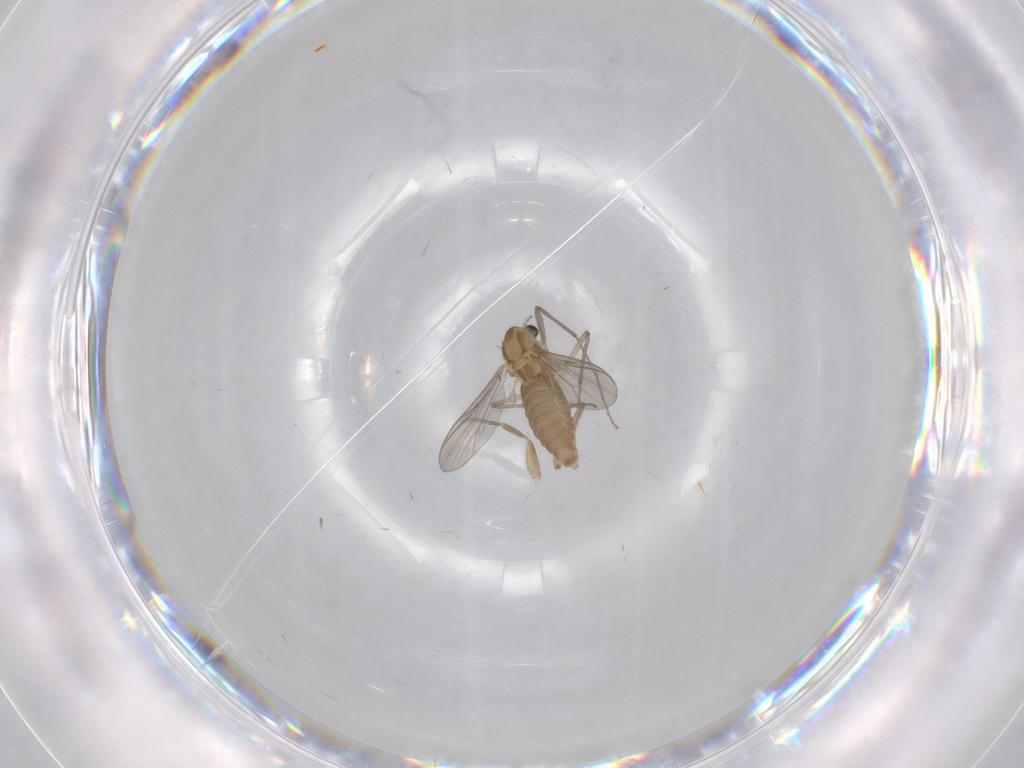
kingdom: Animalia
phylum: Arthropoda
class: Insecta
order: Diptera
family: Chironomidae
